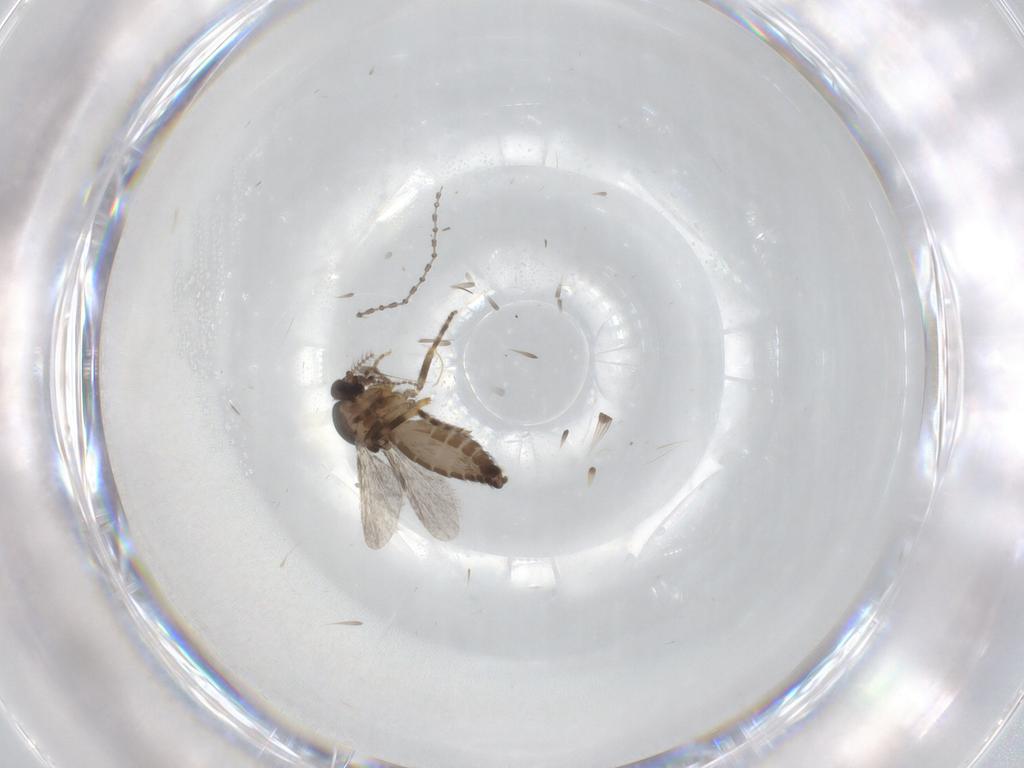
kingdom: Animalia
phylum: Arthropoda
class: Insecta
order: Diptera
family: Ceratopogonidae
